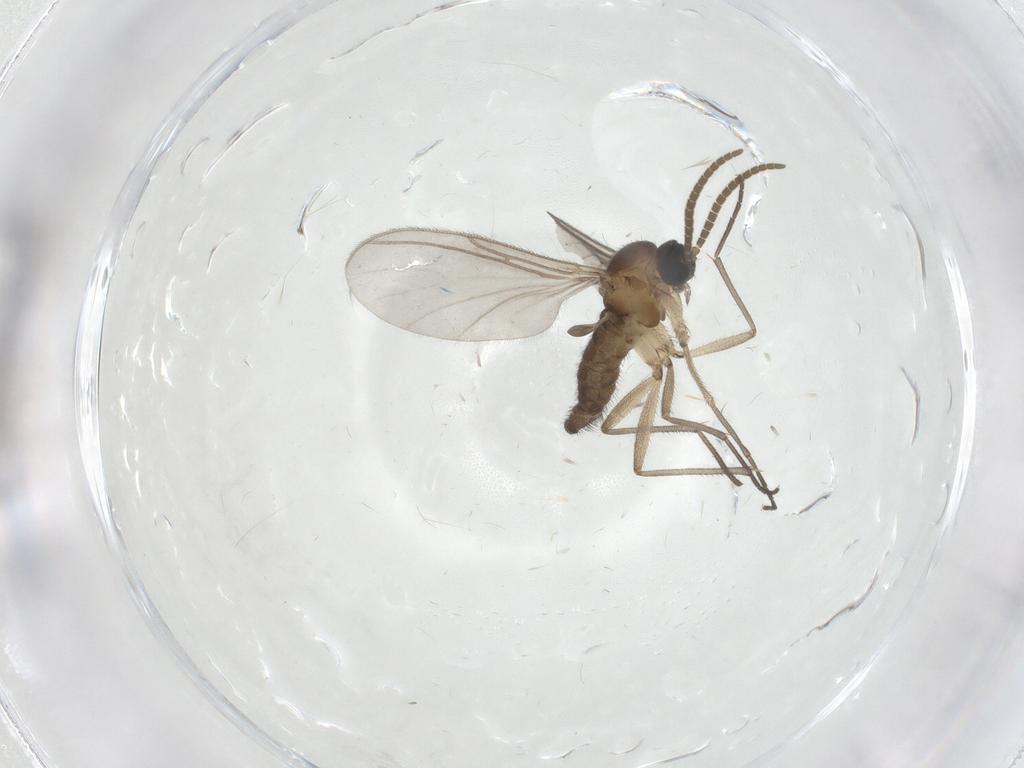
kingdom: Animalia
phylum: Arthropoda
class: Insecta
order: Diptera
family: Cecidomyiidae
